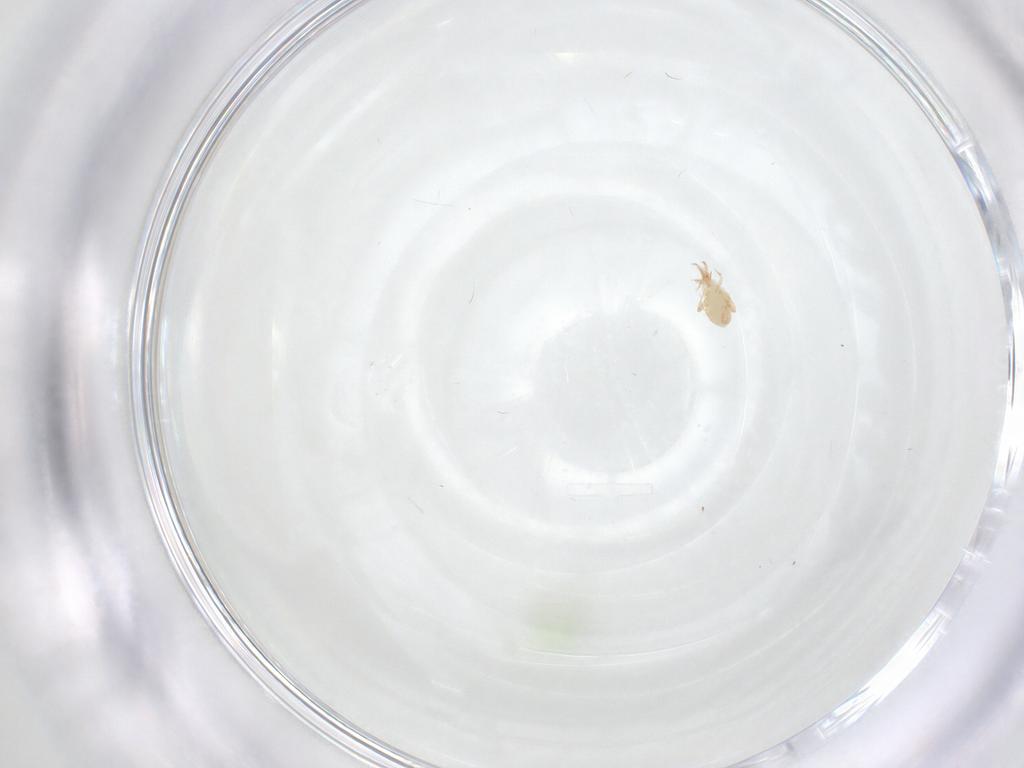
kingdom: Animalia
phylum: Arthropoda
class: Arachnida
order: Trombidiformes
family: Cunaxidae
